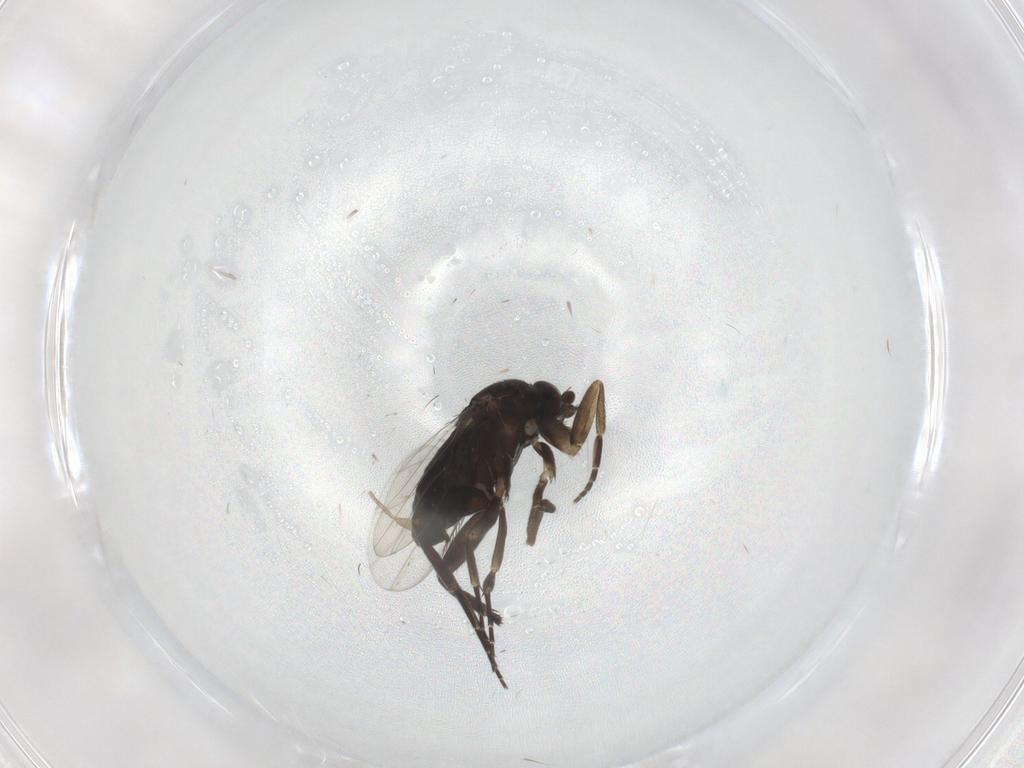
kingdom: Animalia
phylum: Arthropoda
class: Insecta
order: Diptera
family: Phoridae
